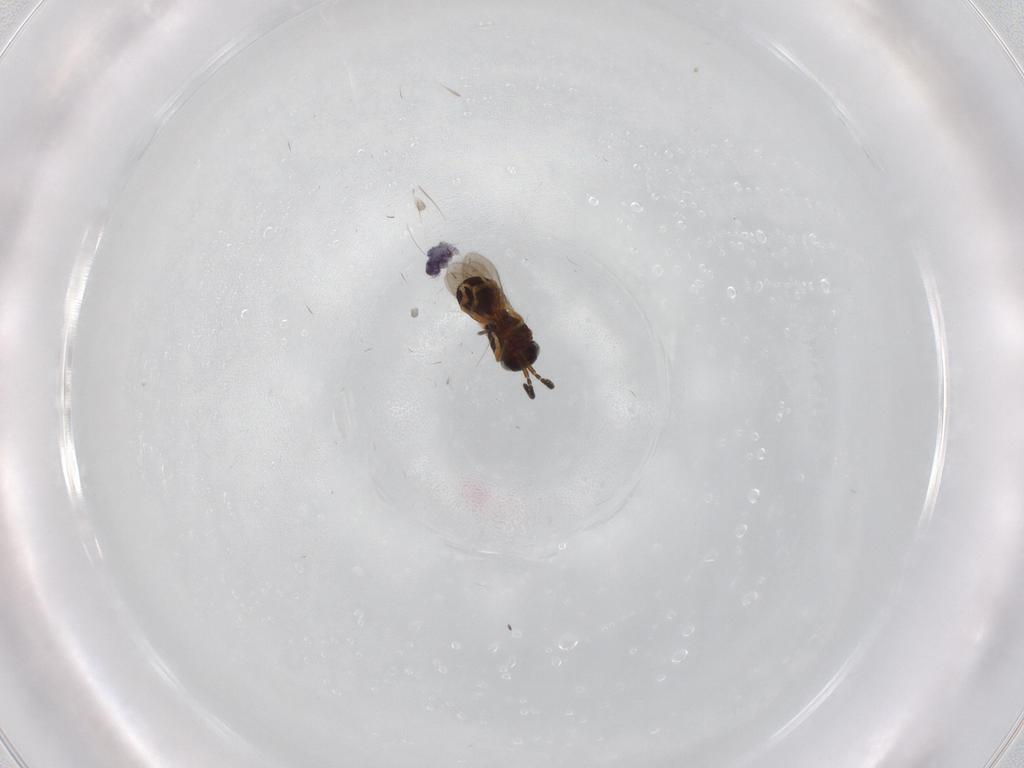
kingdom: Animalia
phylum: Arthropoda
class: Insecta
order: Hymenoptera
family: Scelionidae
